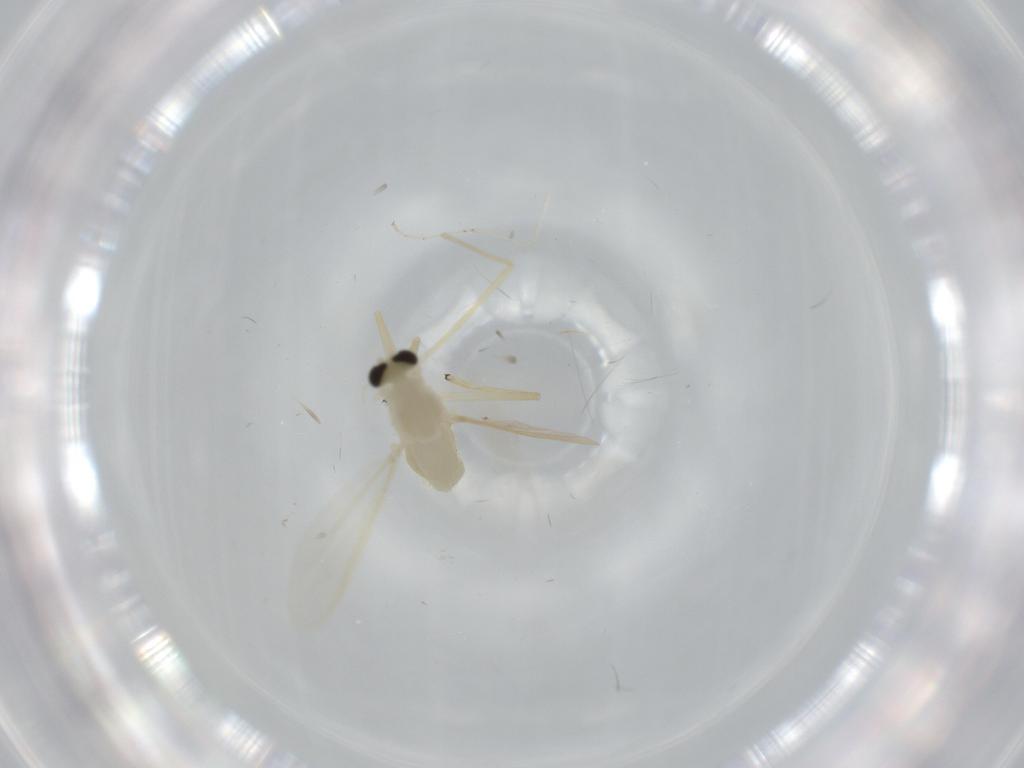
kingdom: Animalia
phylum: Arthropoda
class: Insecta
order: Diptera
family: Chironomidae
